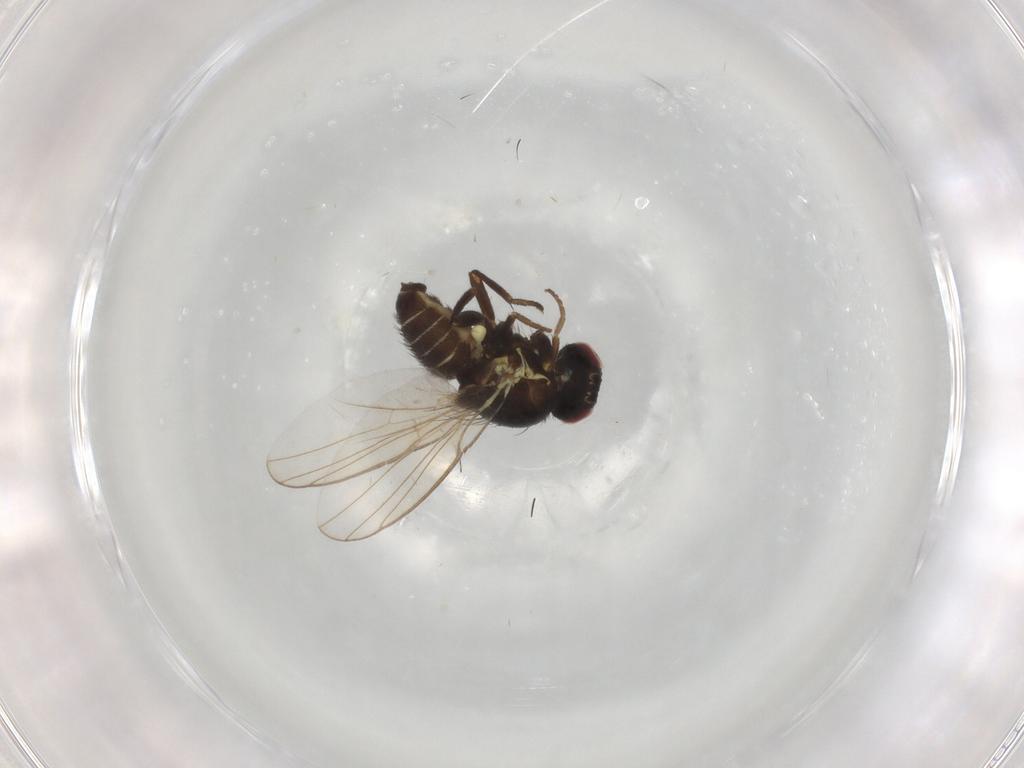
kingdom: Animalia
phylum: Arthropoda
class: Insecta
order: Diptera
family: Agromyzidae
